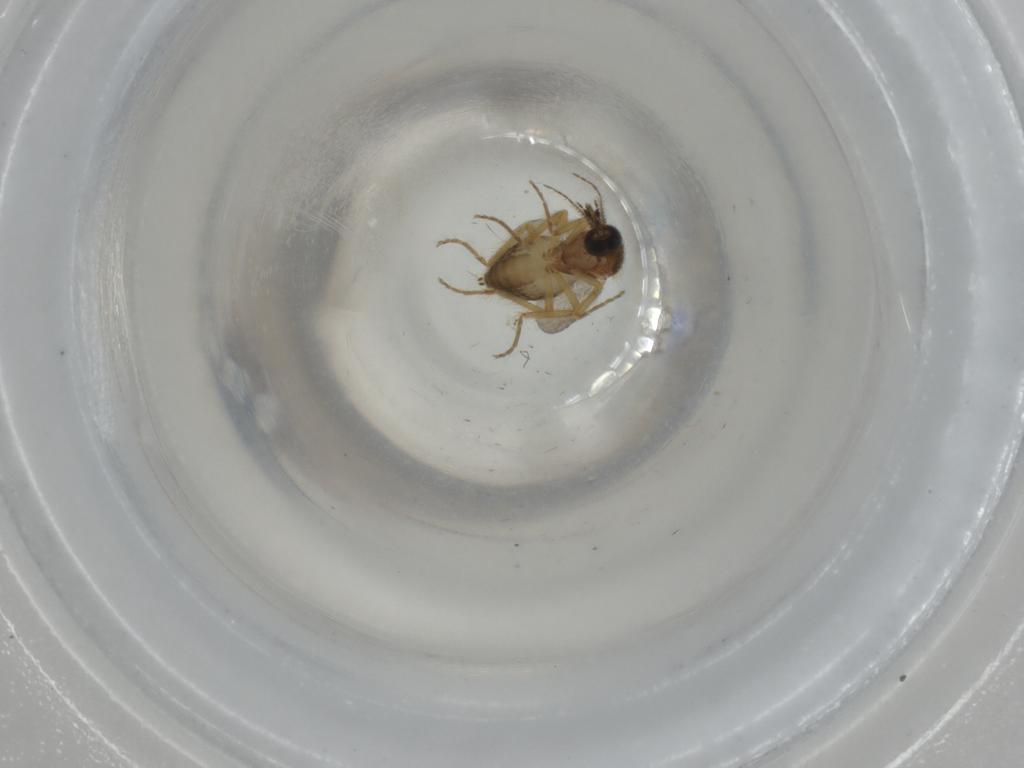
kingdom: Animalia
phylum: Arthropoda
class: Insecta
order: Diptera
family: Ceratopogonidae
